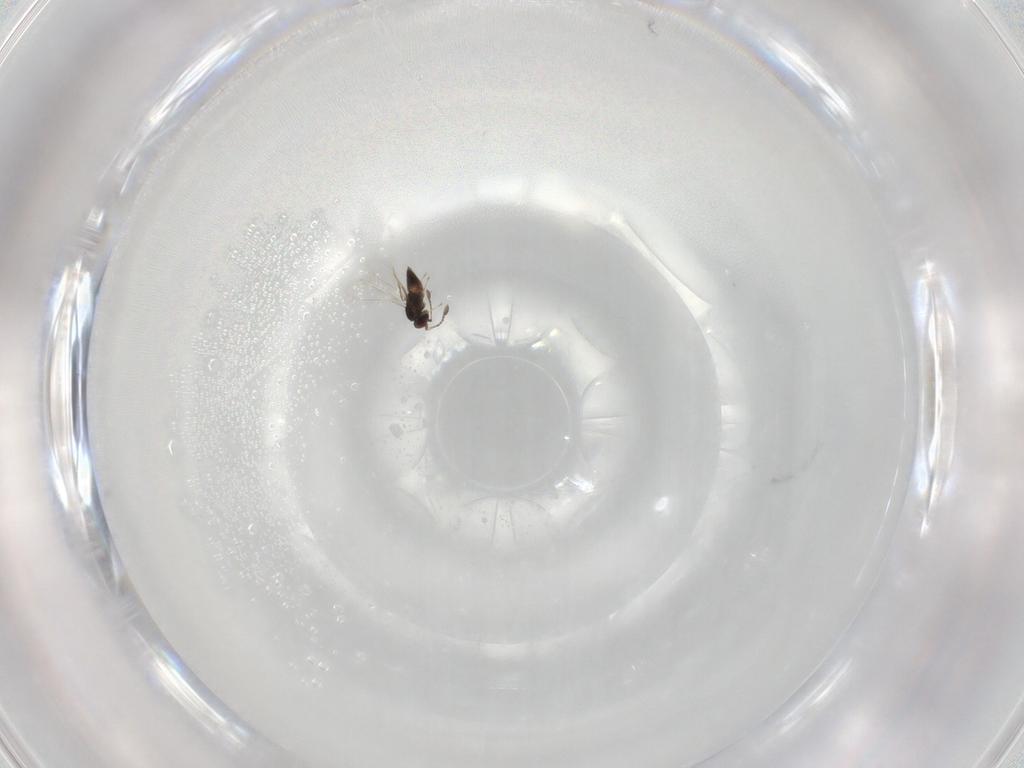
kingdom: Animalia
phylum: Arthropoda
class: Insecta
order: Hymenoptera
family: Mymaridae
